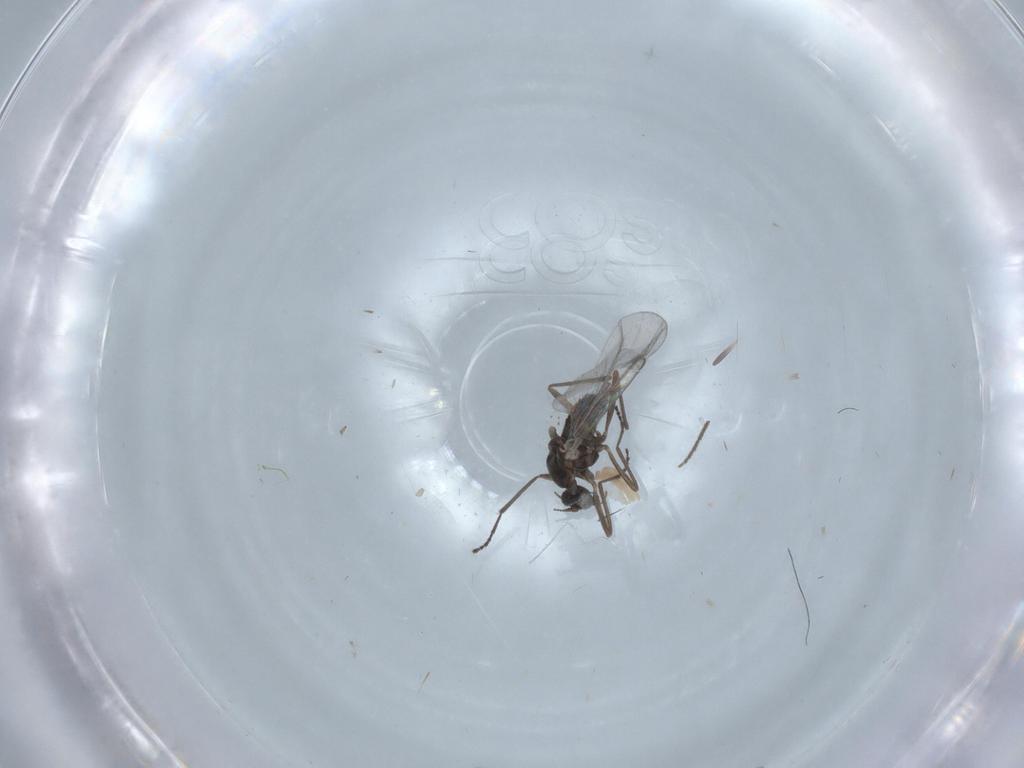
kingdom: Animalia
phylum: Arthropoda
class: Insecta
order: Diptera
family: Cecidomyiidae
